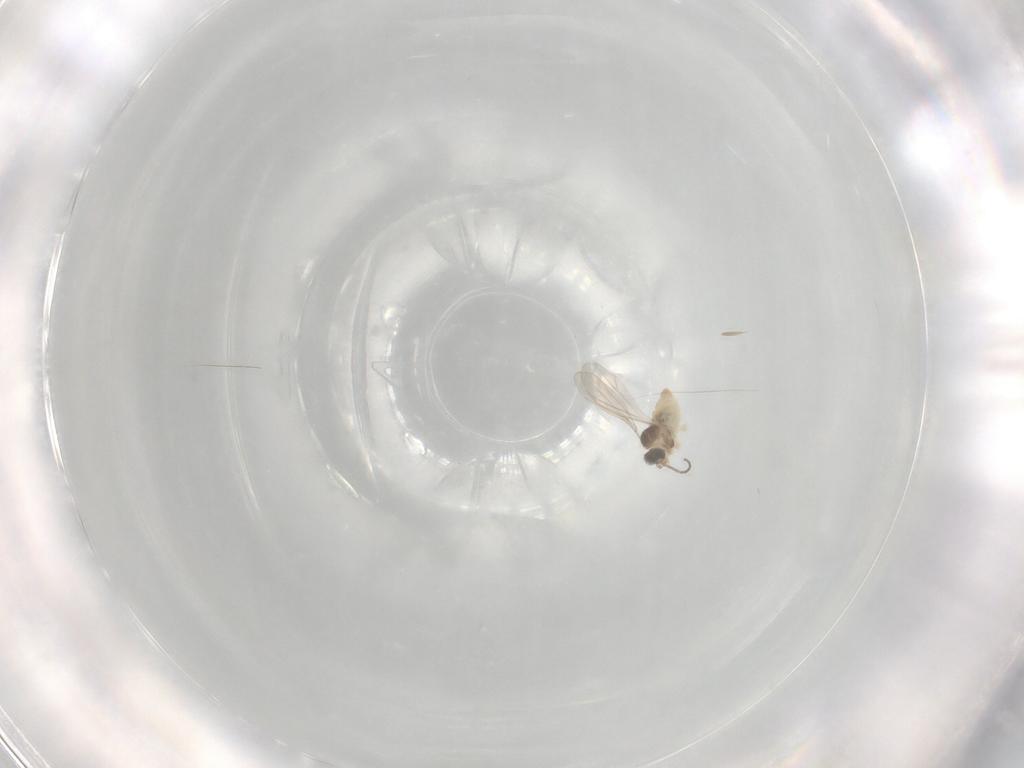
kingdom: Animalia
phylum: Arthropoda
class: Insecta
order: Diptera
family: Cecidomyiidae
